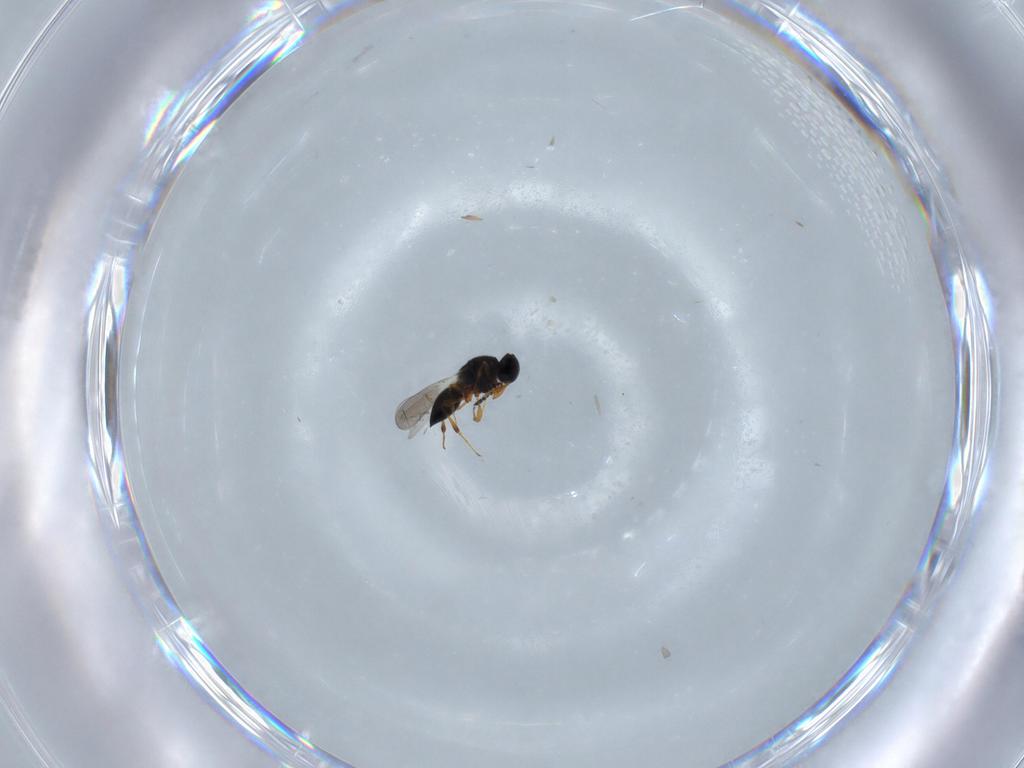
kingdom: Animalia
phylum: Arthropoda
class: Insecta
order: Hymenoptera
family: Platygastridae
